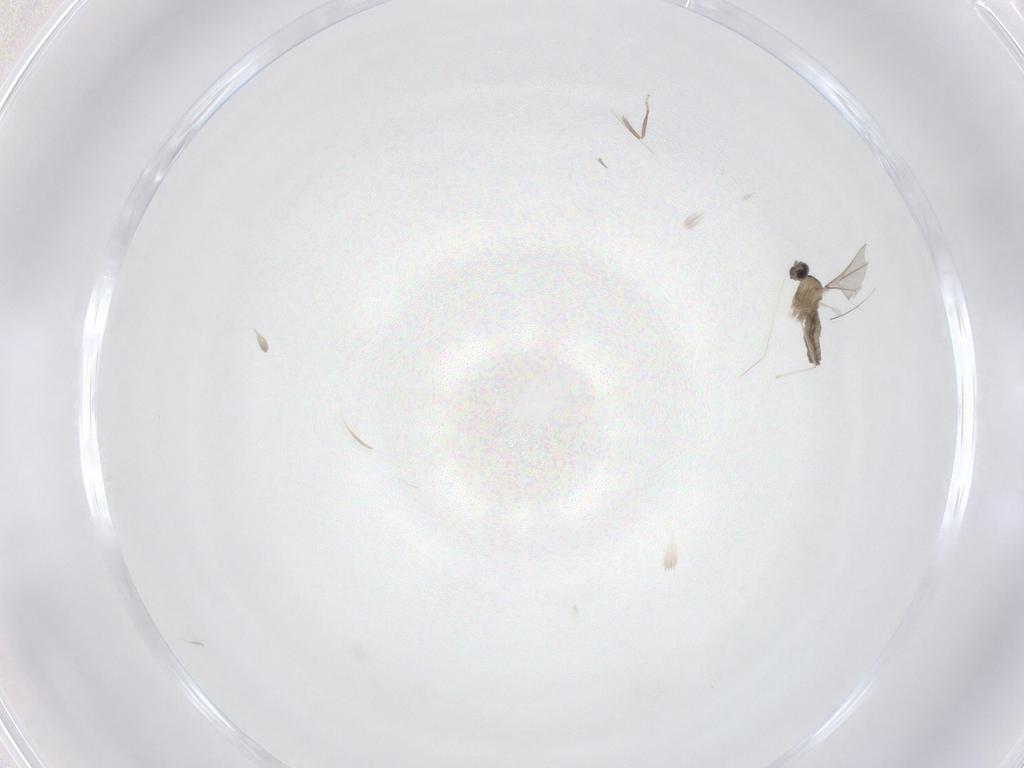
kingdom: Animalia
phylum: Arthropoda
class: Insecta
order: Diptera
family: Cecidomyiidae
